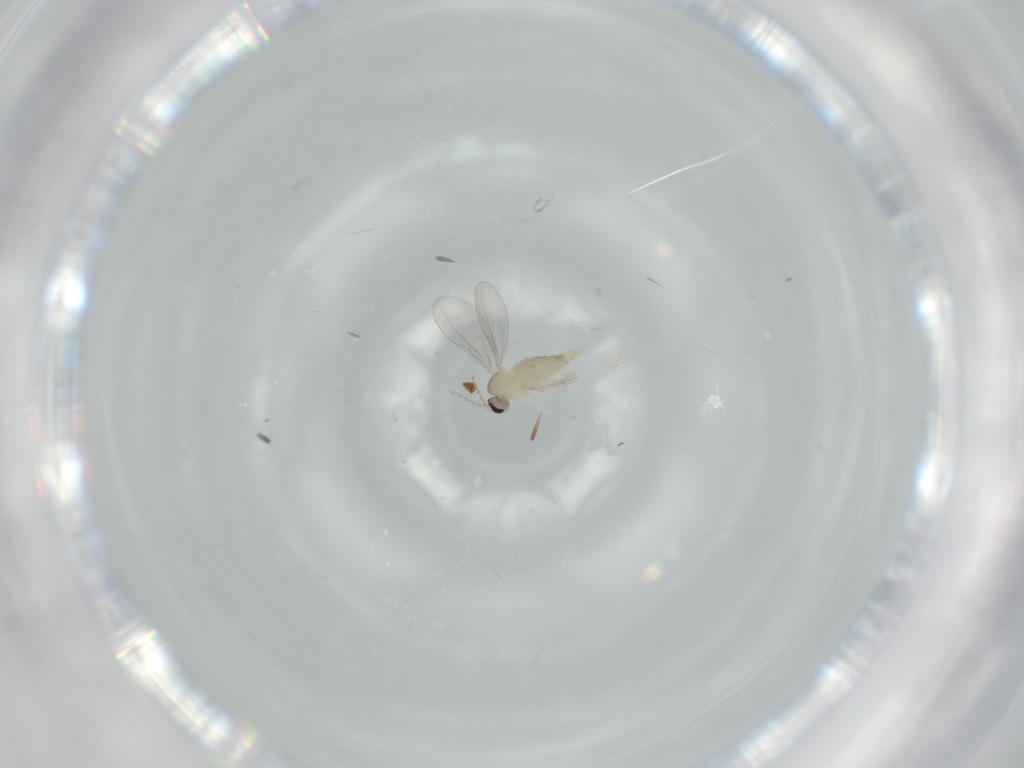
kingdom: Animalia
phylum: Arthropoda
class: Insecta
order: Diptera
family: Cecidomyiidae
